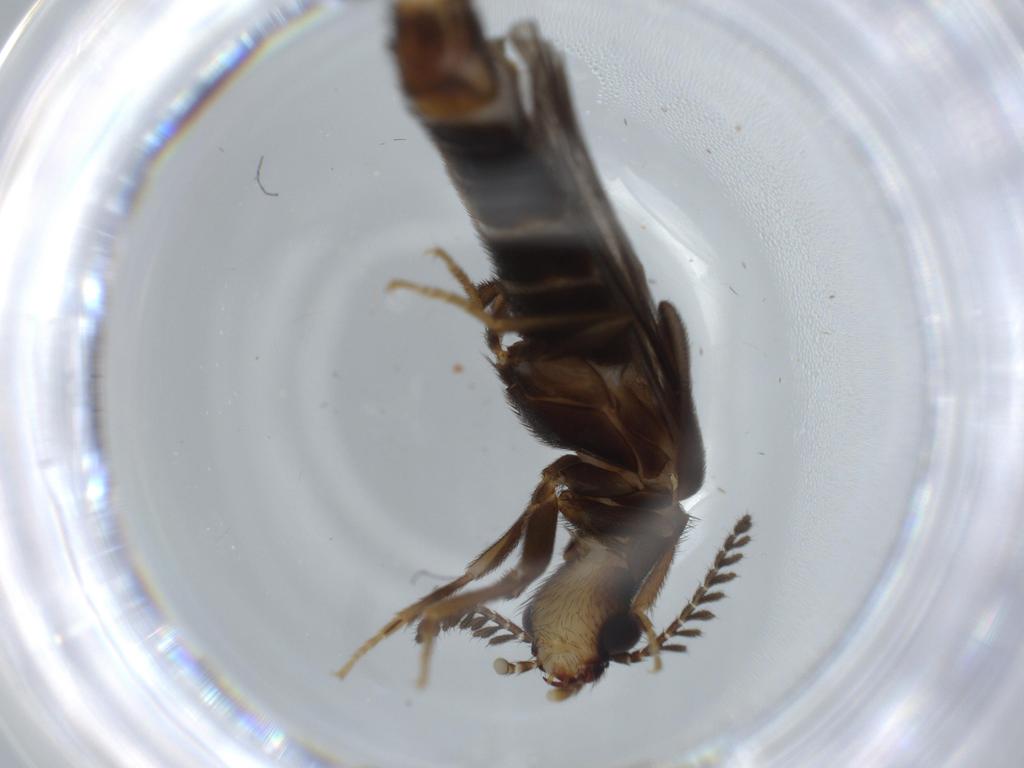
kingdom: Animalia
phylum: Arthropoda
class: Insecta
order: Coleoptera
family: Phengodidae
